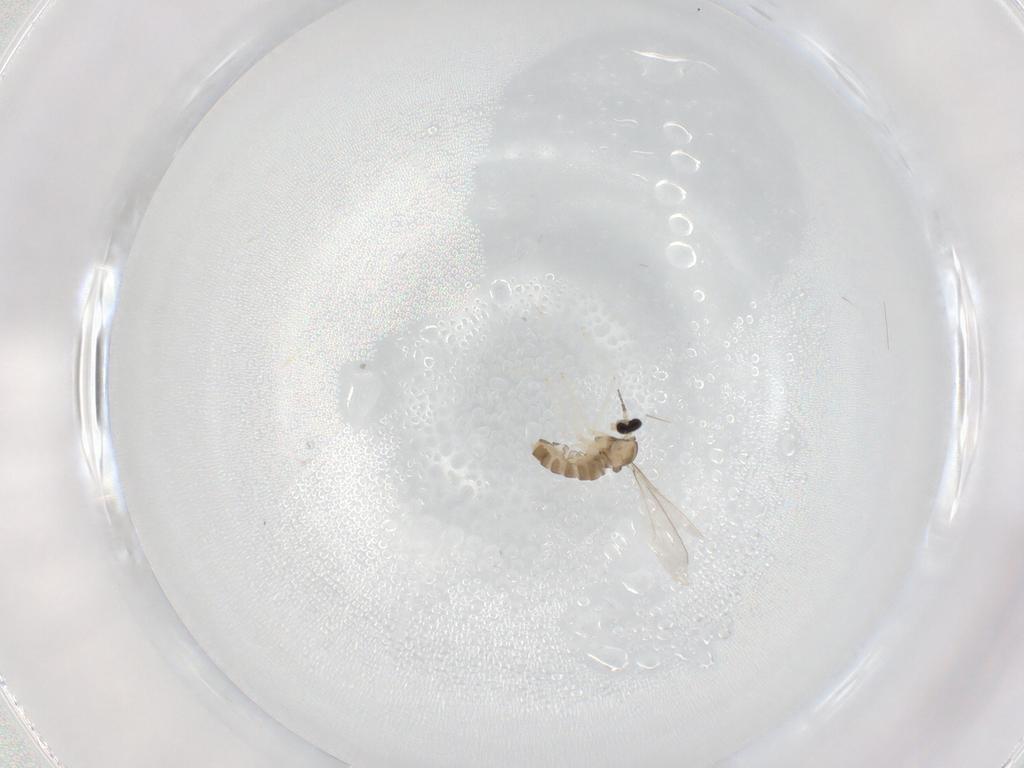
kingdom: Animalia
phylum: Arthropoda
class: Insecta
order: Diptera
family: Cecidomyiidae
